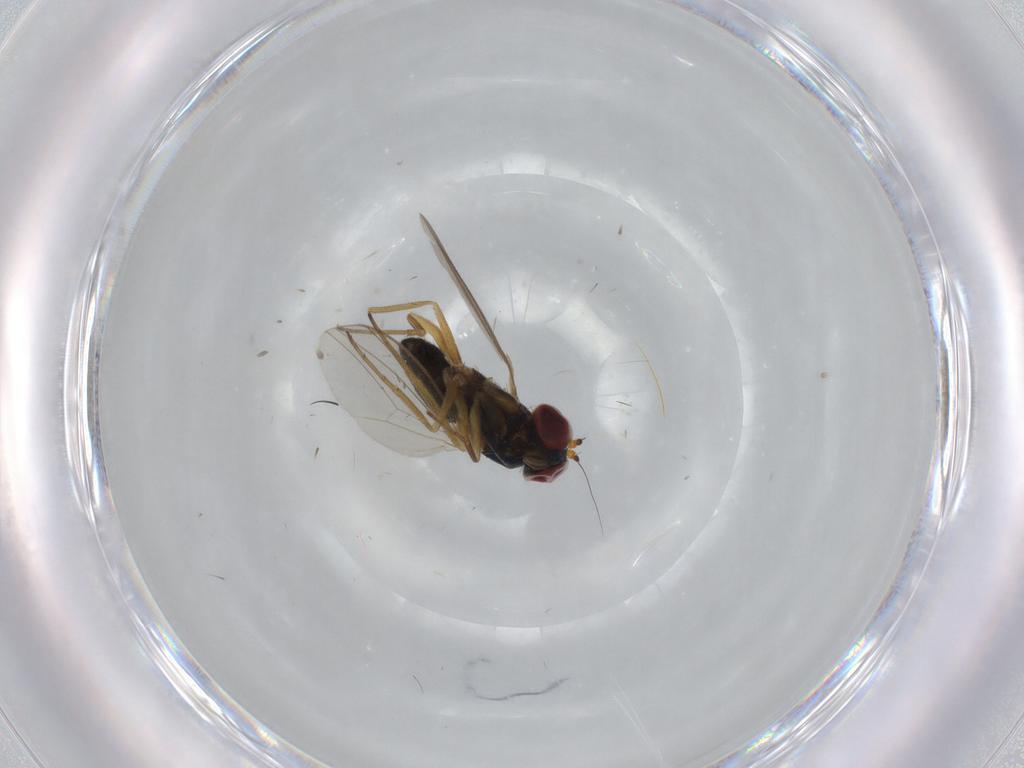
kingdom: Animalia
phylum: Arthropoda
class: Insecta
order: Diptera
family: Dolichopodidae
